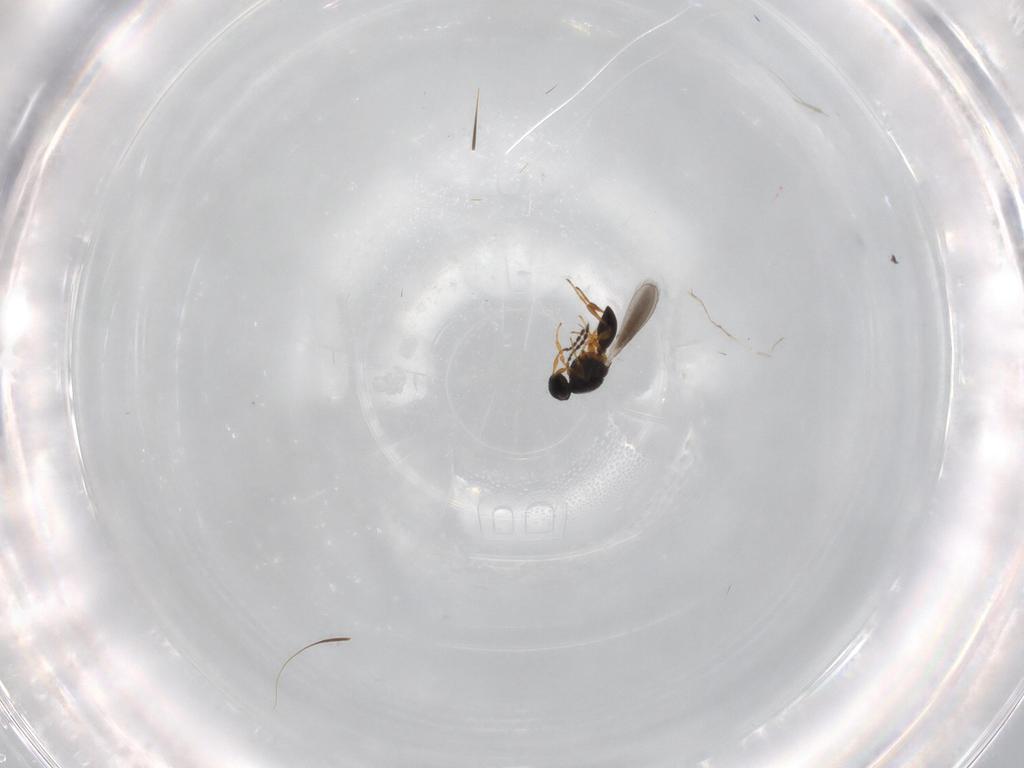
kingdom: Animalia
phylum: Arthropoda
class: Insecta
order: Hymenoptera
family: Platygastridae
